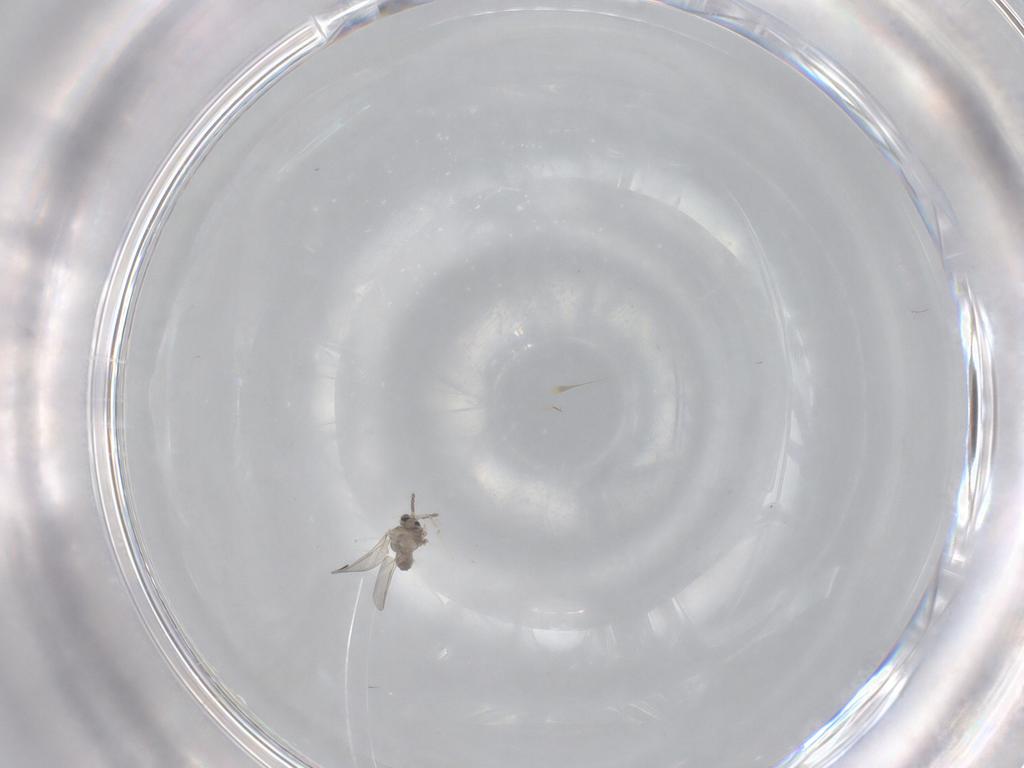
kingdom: Animalia
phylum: Arthropoda
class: Insecta
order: Diptera
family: Cecidomyiidae
